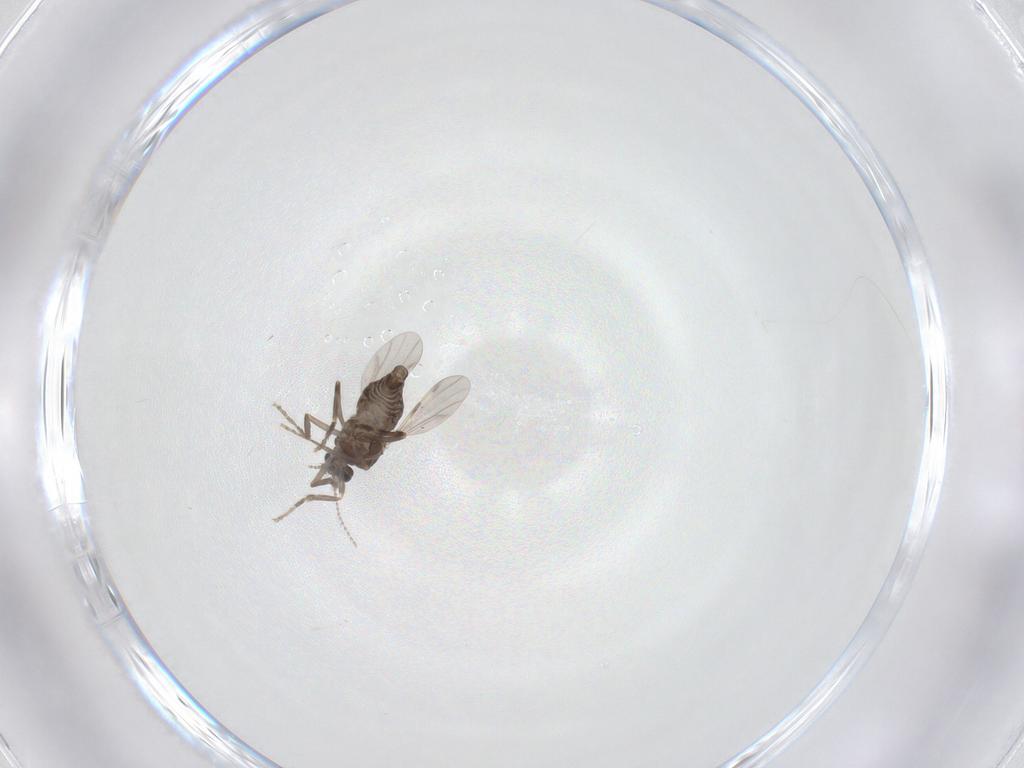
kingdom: Animalia
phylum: Arthropoda
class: Insecta
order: Diptera
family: Ceratopogonidae
